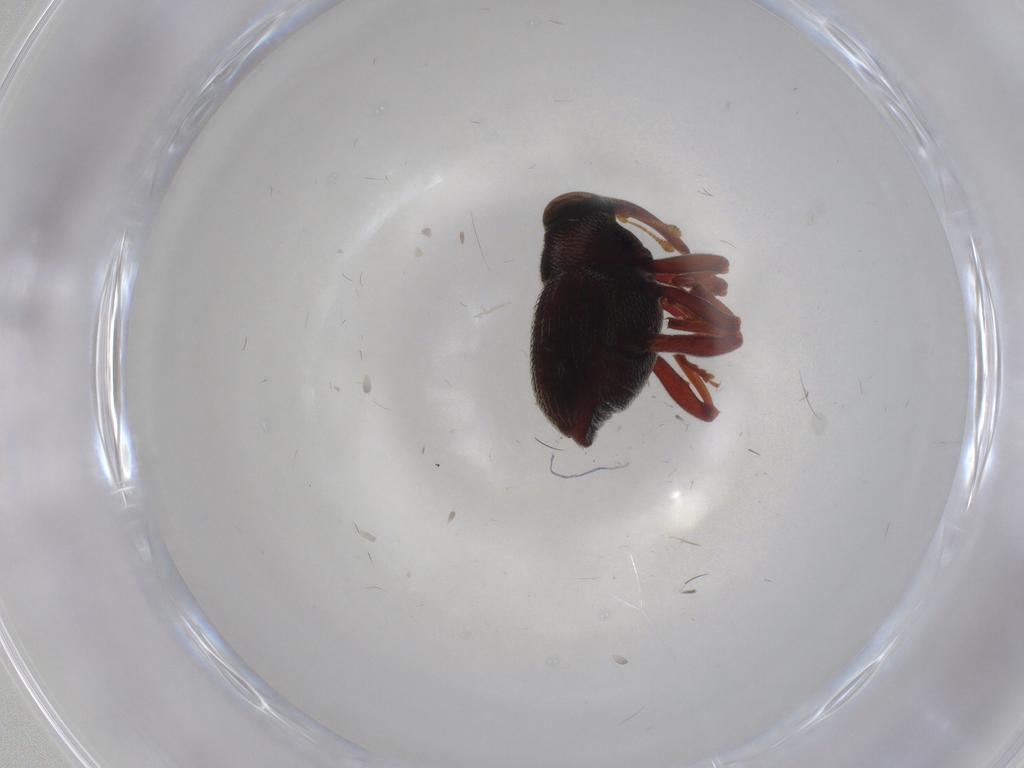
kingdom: Animalia
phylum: Arthropoda
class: Insecta
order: Coleoptera
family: Curculionidae
